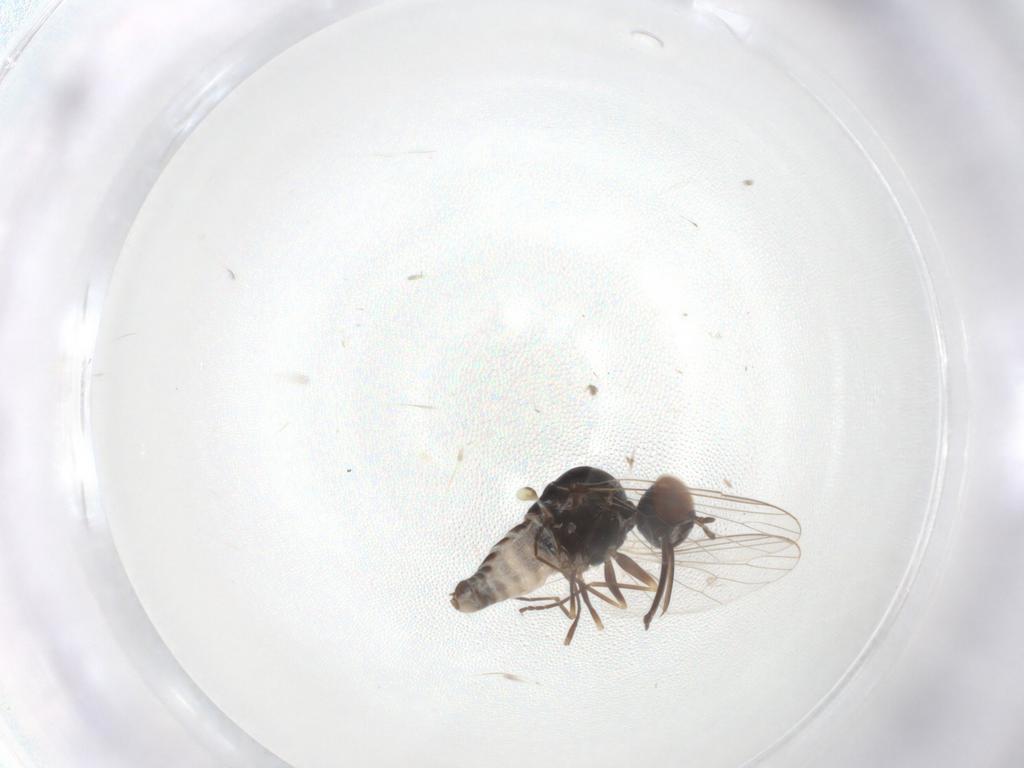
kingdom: Animalia
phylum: Arthropoda
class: Insecta
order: Diptera
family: Bombyliidae
